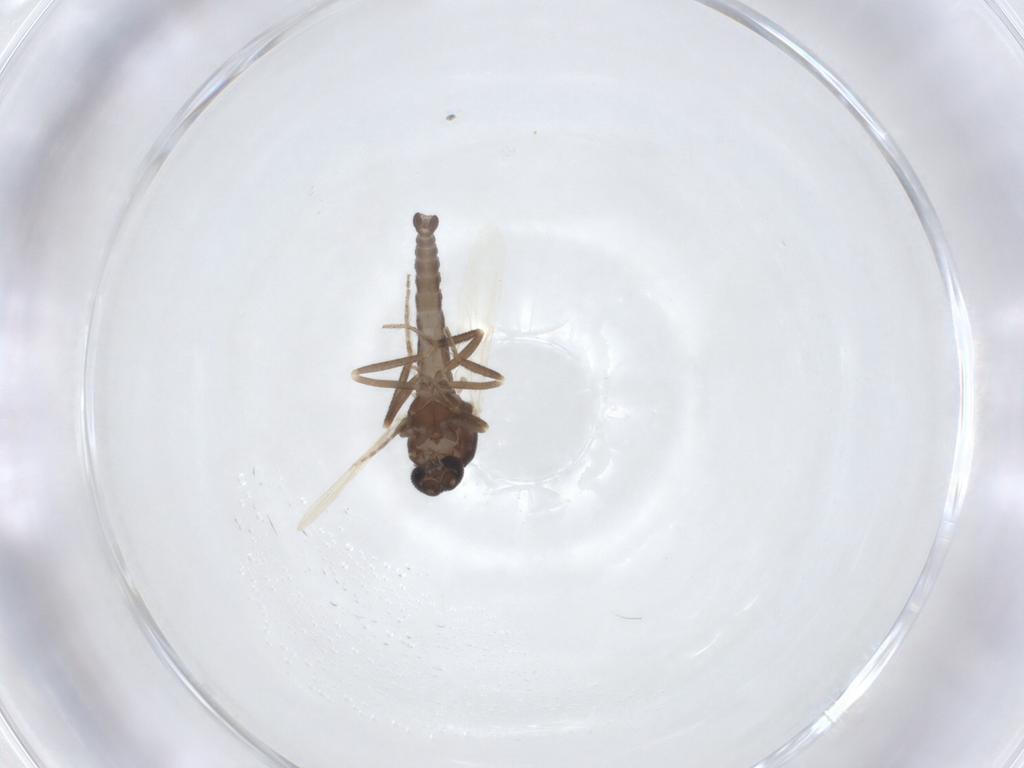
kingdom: Animalia
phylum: Arthropoda
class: Insecta
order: Diptera
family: Ceratopogonidae
